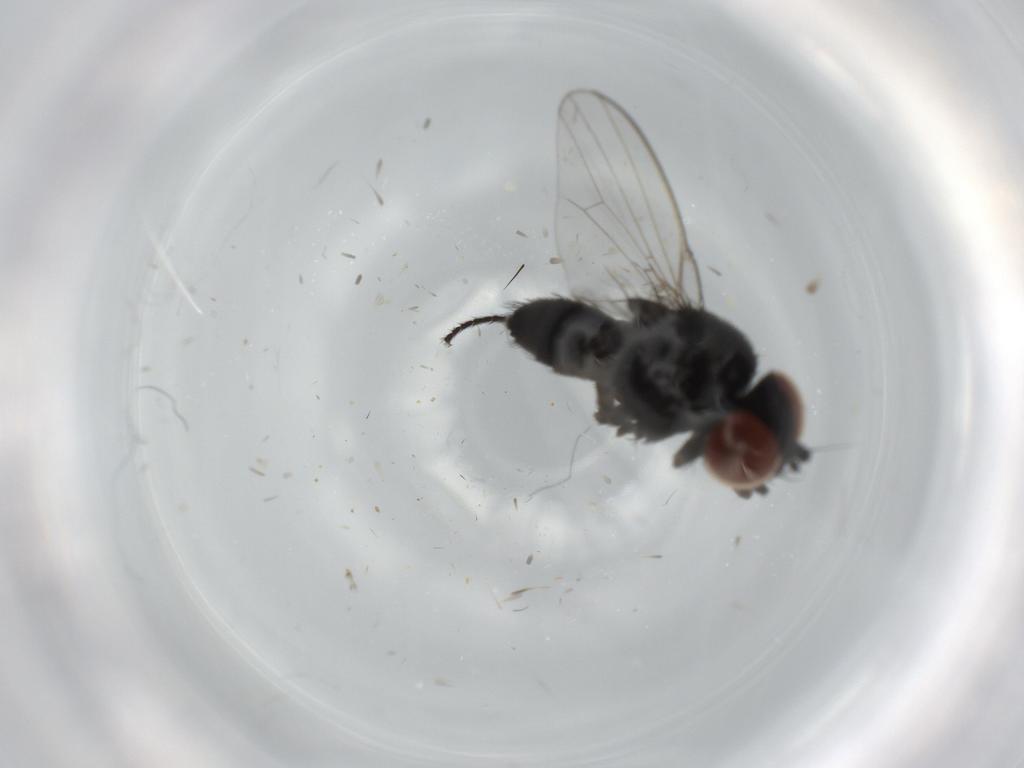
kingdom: Animalia
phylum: Arthropoda
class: Insecta
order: Diptera
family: Milichiidae
